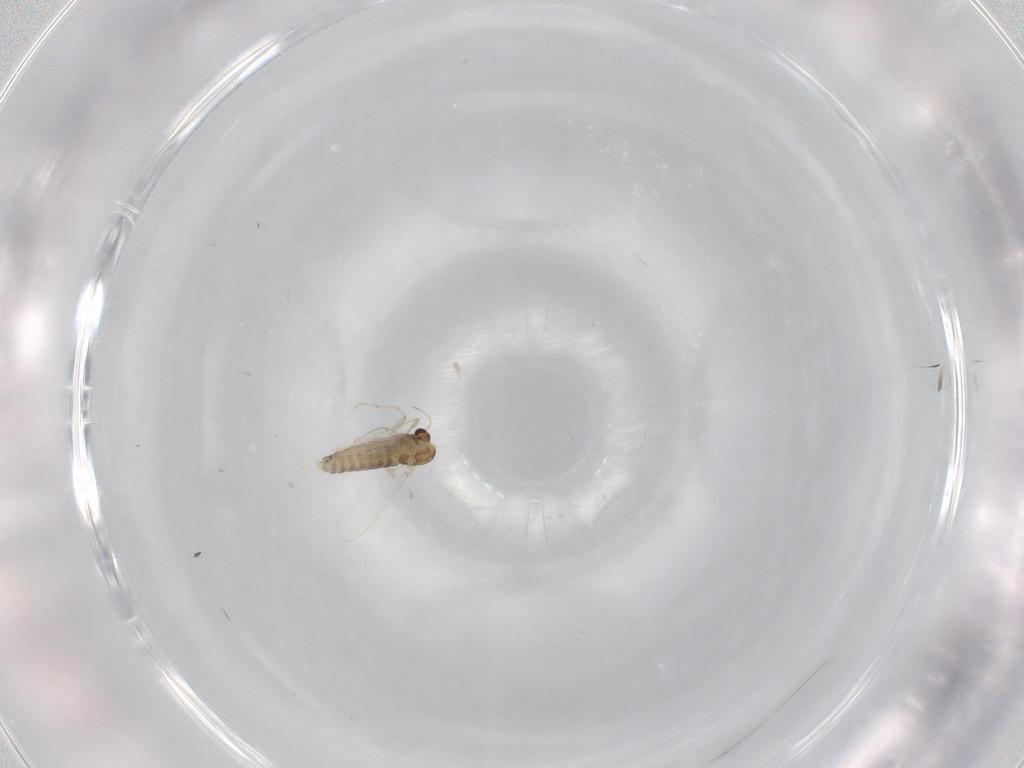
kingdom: Animalia
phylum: Arthropoda
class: Insecta
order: Diptera
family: Chironomidae
